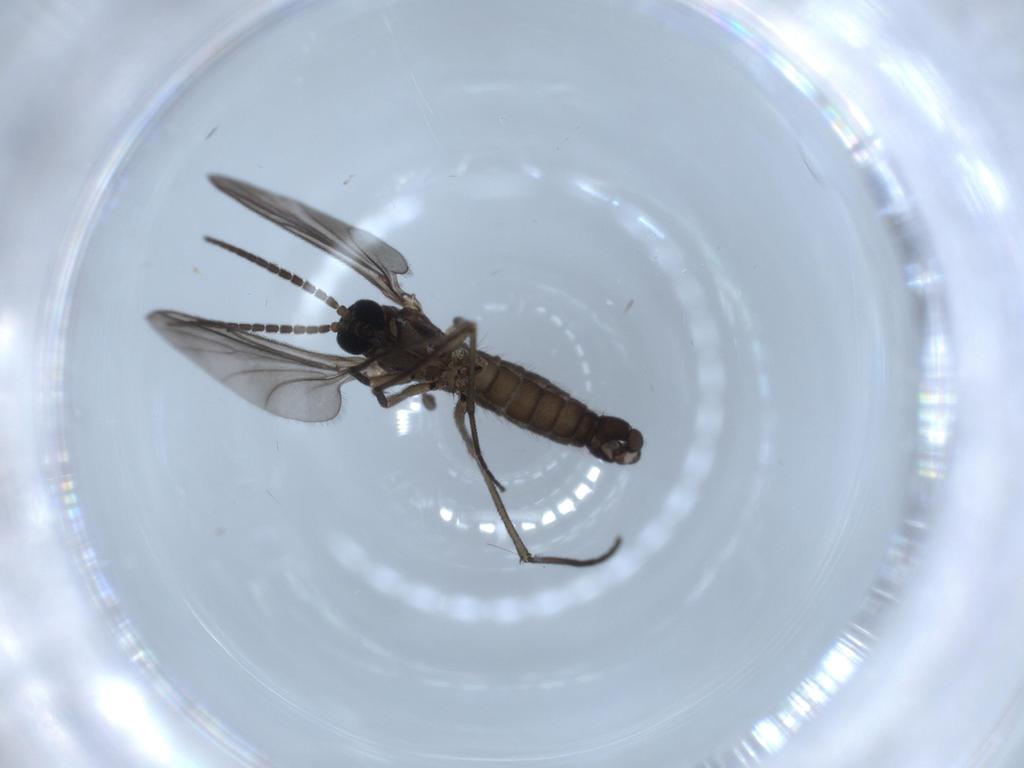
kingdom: Animalia
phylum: Arthropoda
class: Insecta
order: Diptera
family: Sciaridae
